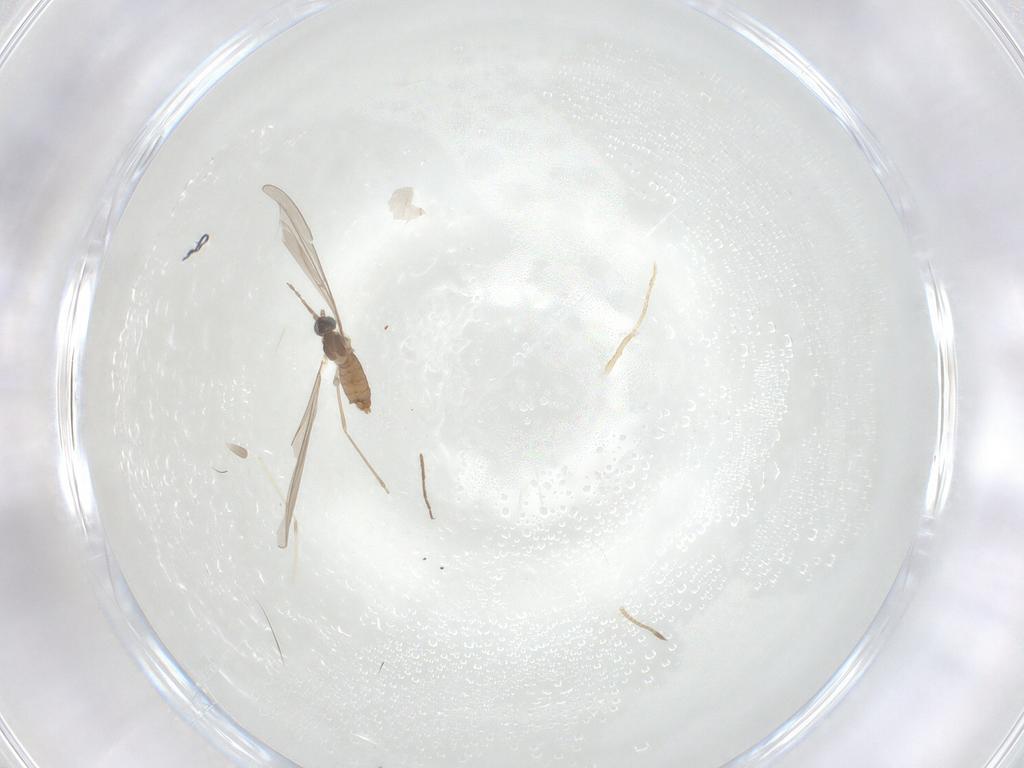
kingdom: Animalia
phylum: Arthropoda
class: Insecta
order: Diptera
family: Cecidomyiidae
